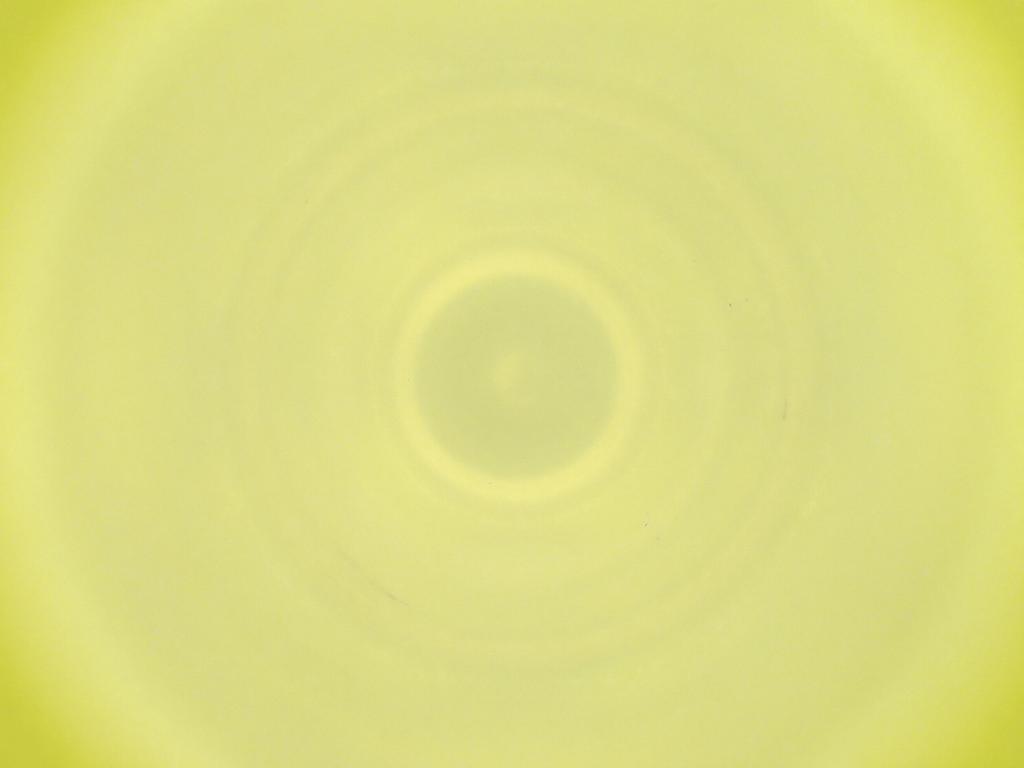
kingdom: Animalia
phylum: Arthropoda
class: Insecta
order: Diptera
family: Cecidomyiidae
